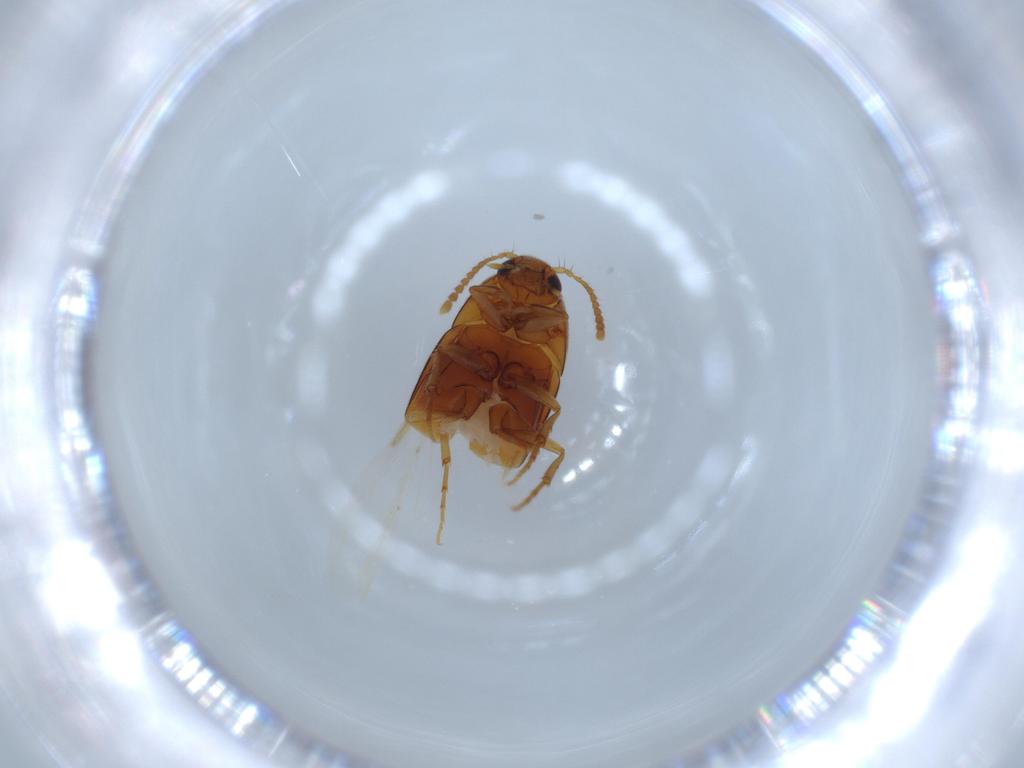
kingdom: Animalia
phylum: Arthropoda
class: Insecta
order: Coleoptera
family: Staphylinidae
